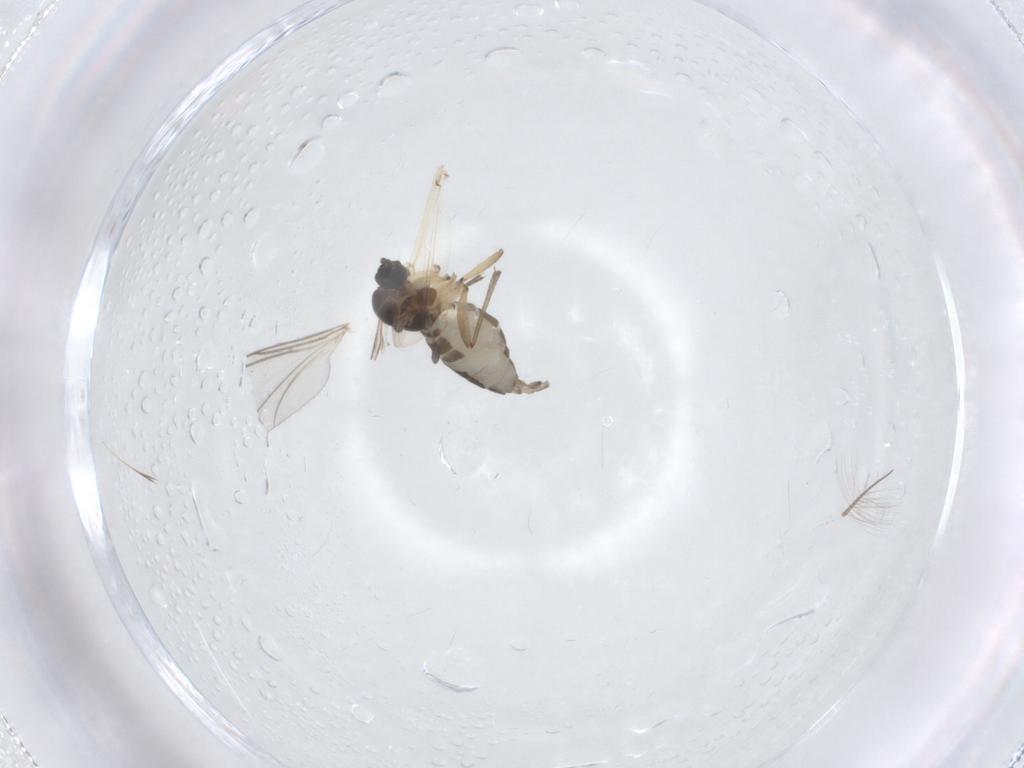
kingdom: Animalia
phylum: Arthropoda
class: Insecta
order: Diptera
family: Sciaridae
